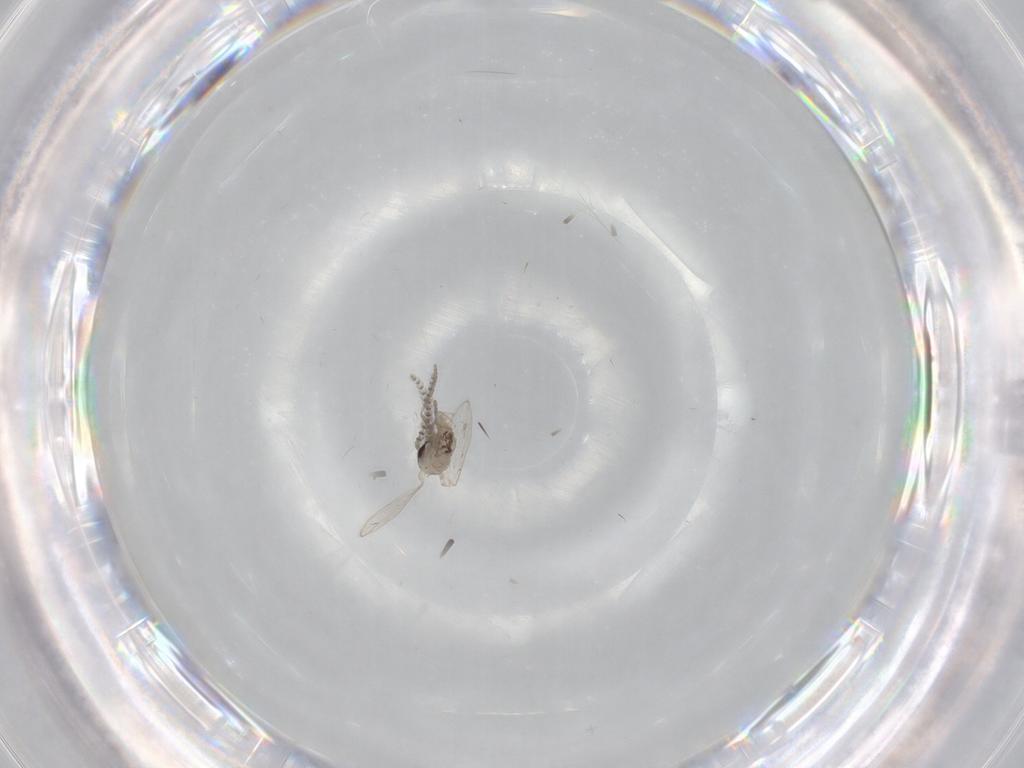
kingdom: Animalia
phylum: Arthropoda
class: Insecta
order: Diptera
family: Psychodidae
